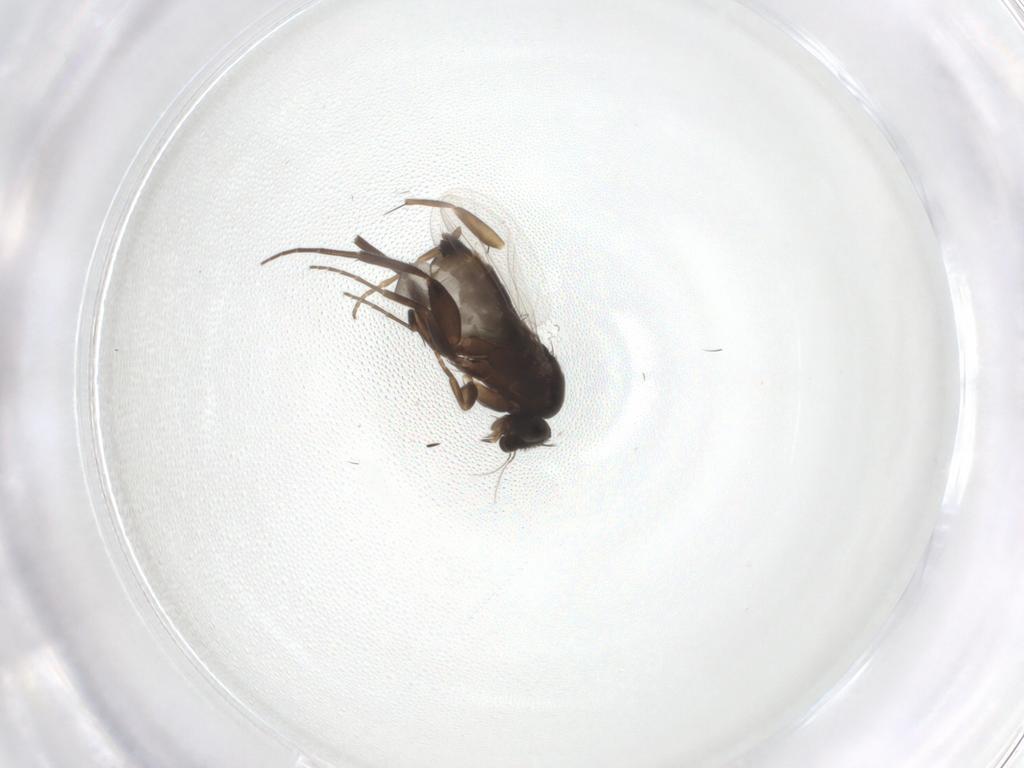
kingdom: Animalia
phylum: Arthropoda
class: Insecta
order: Diptera
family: Phoridae
